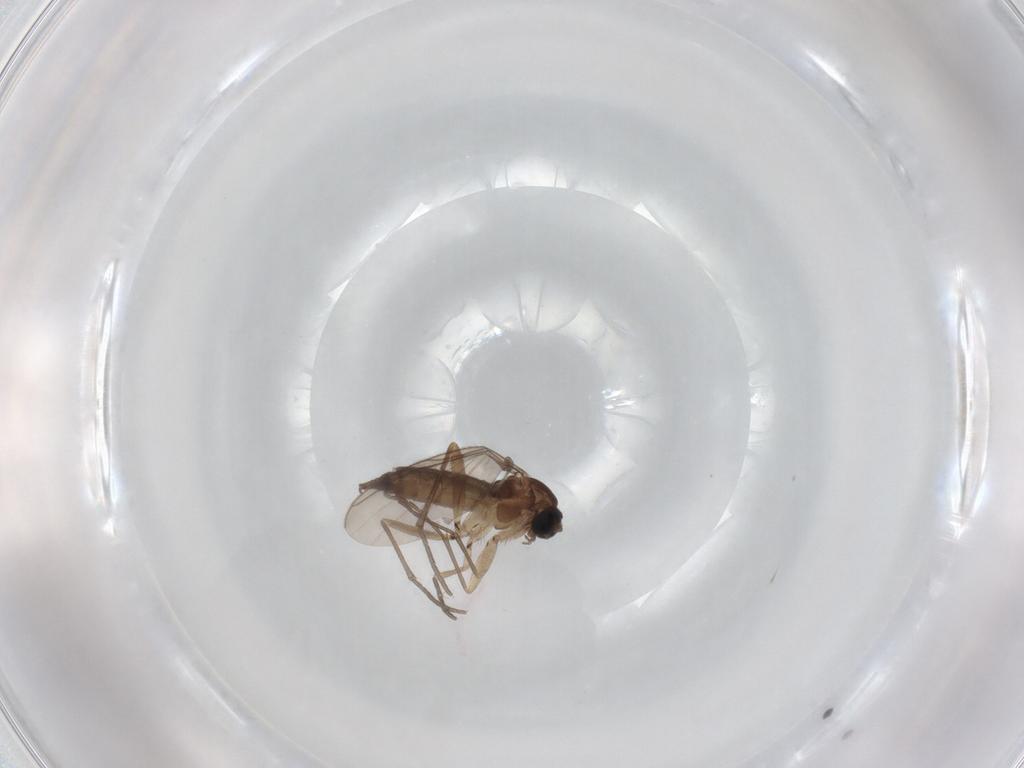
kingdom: Animalia
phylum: Arthropoda
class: Insecta
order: Diptera
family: Sciaridae
